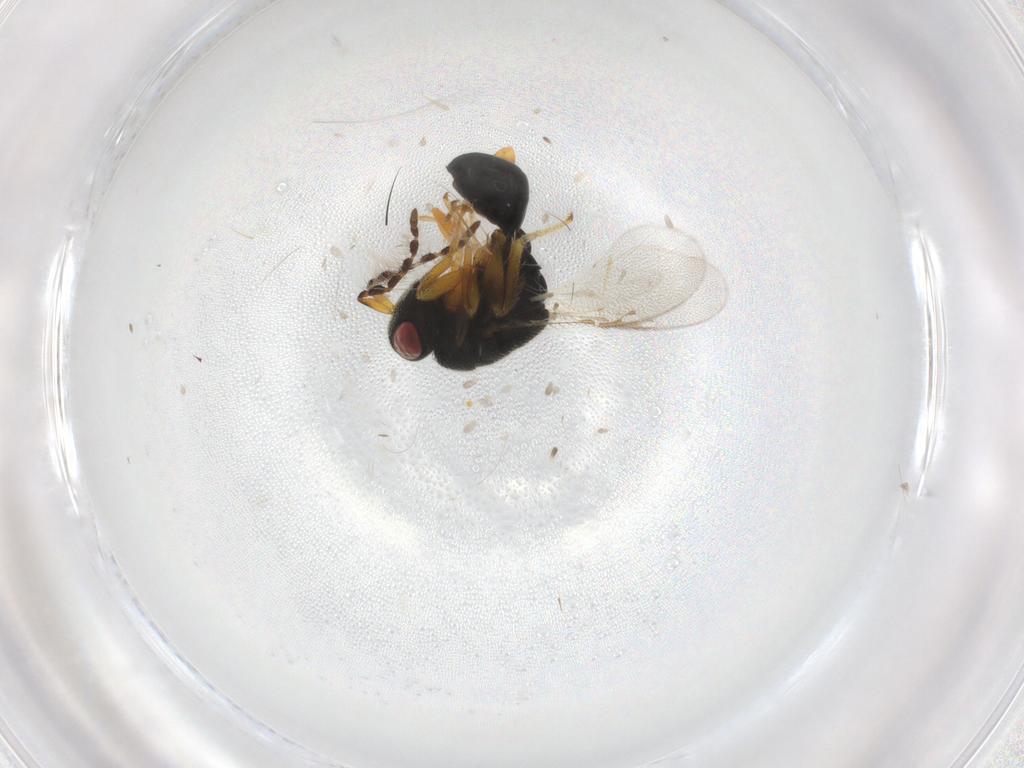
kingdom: Animalia
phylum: Arthropoda
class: Insecta
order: Hymenoptera
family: Eurytomidae
